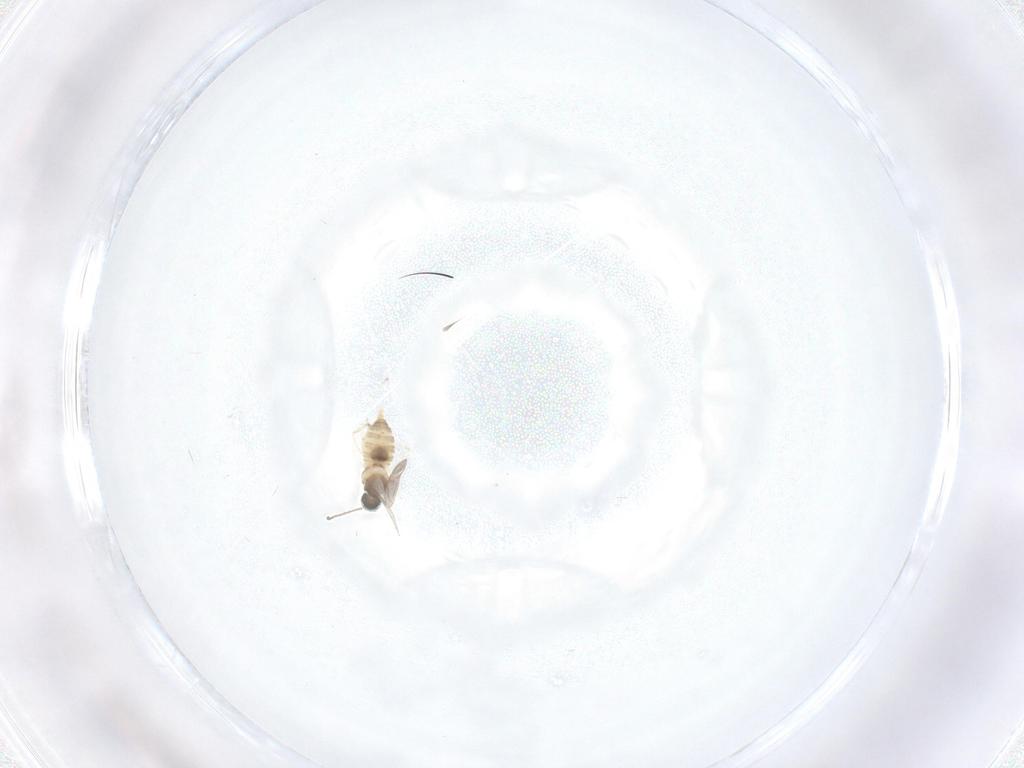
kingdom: Animalia
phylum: Arthropoda
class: Insecta
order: Diptera
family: Cecidomyiidae
